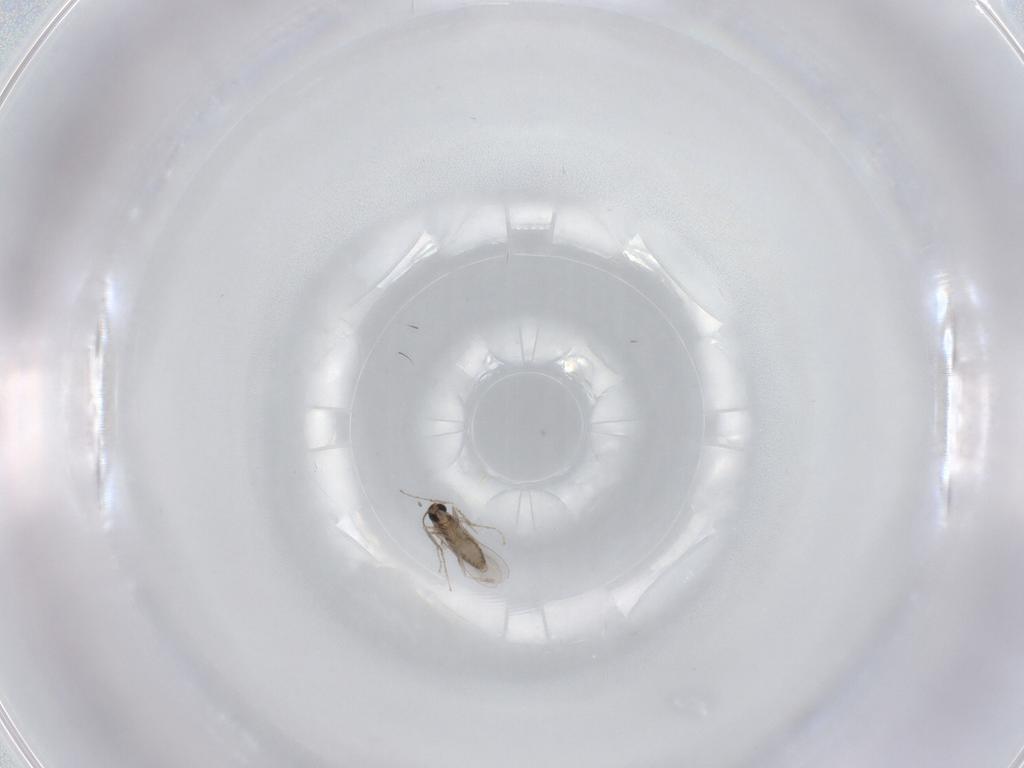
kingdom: Animalia
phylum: Arthropoda
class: Insecta
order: Diptera
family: Cecidomyiidae
